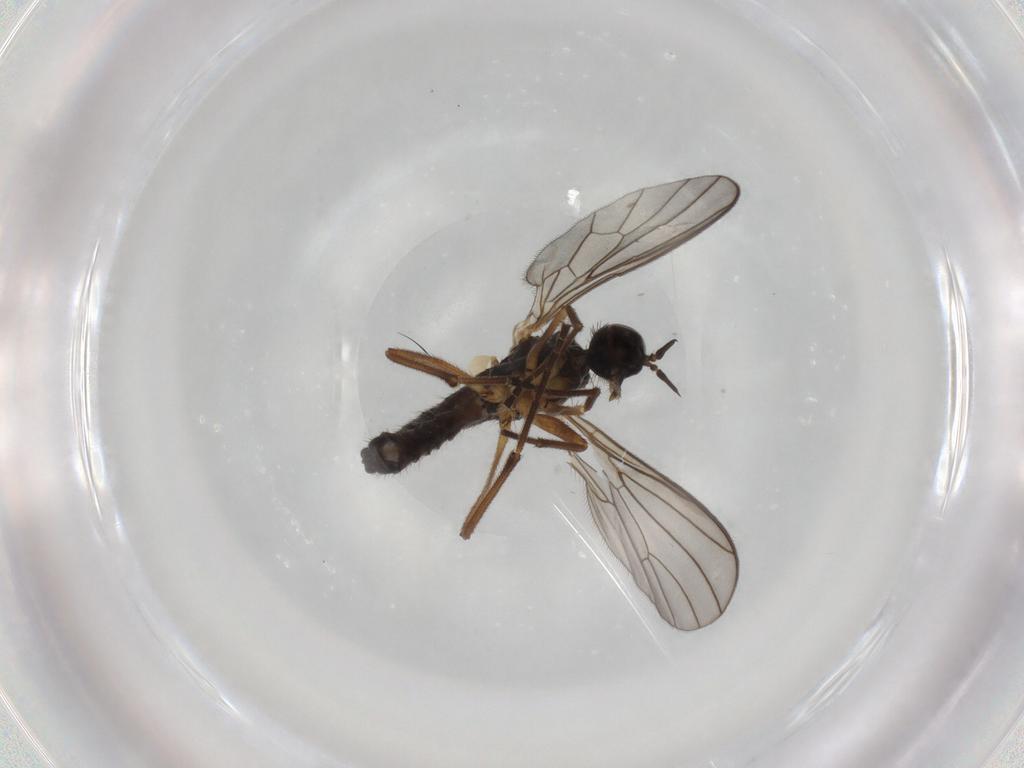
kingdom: Animalia
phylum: Arthropoda
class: Insecta
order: Diptera
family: Empididae
